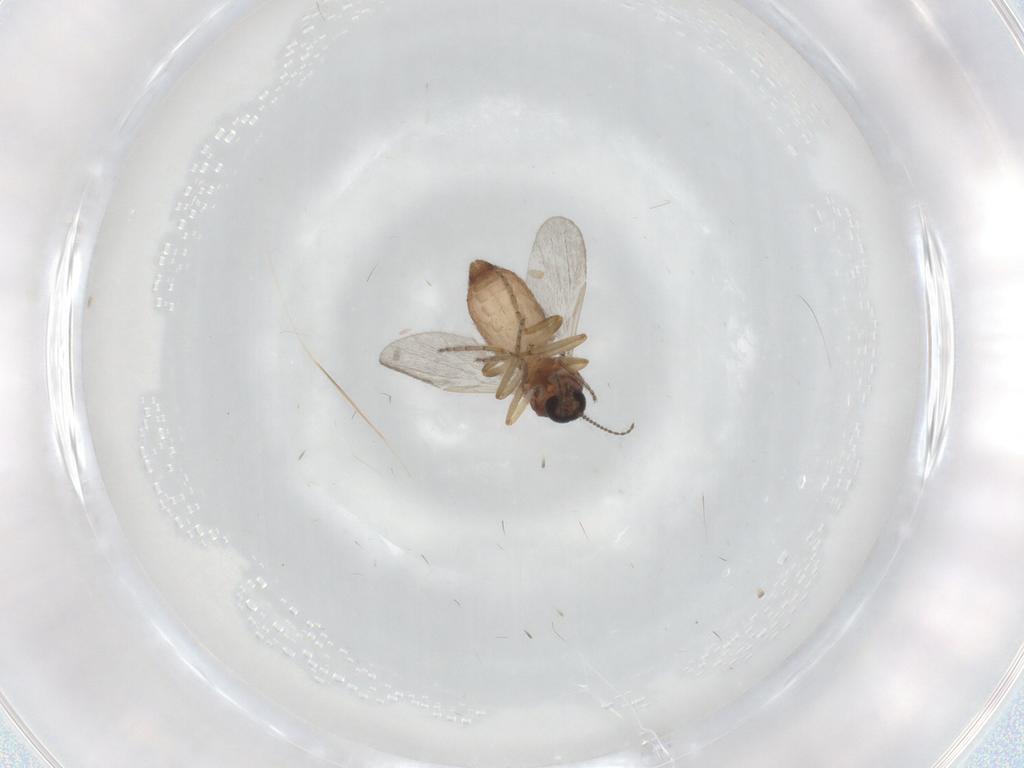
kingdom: Animalia
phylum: Arthropoda
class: Insecta
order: Diptera
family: Ceratopogonidae
